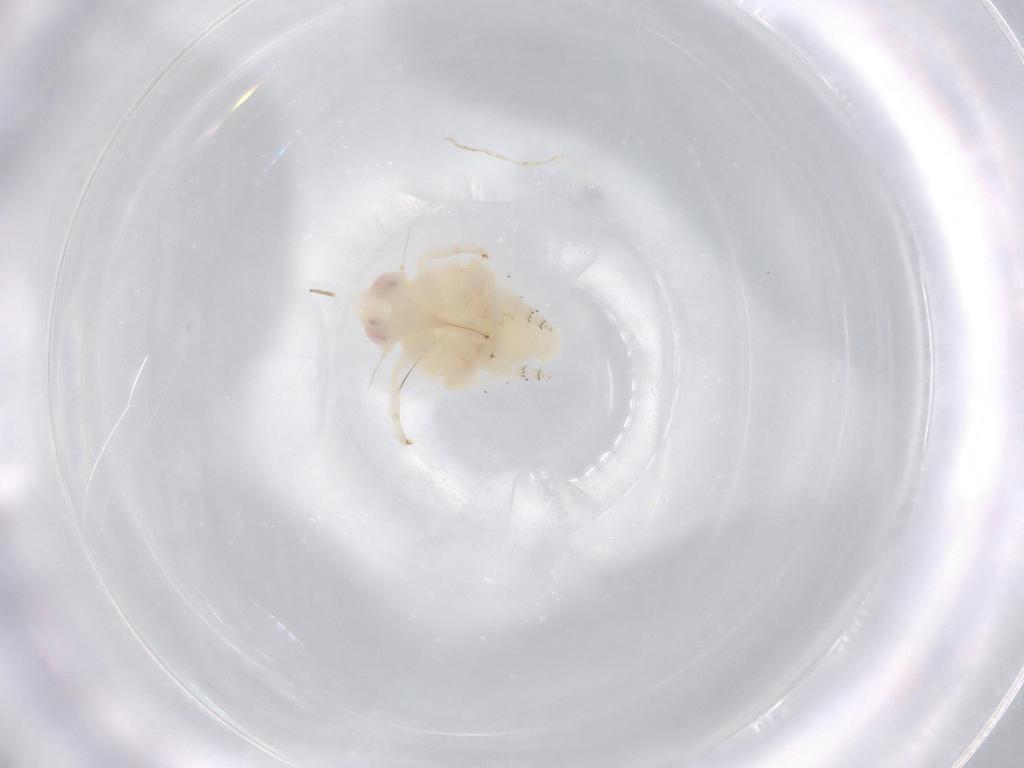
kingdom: Animalia
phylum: Arthropoda
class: Insecta
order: Hemiptera
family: Nogodinidae
